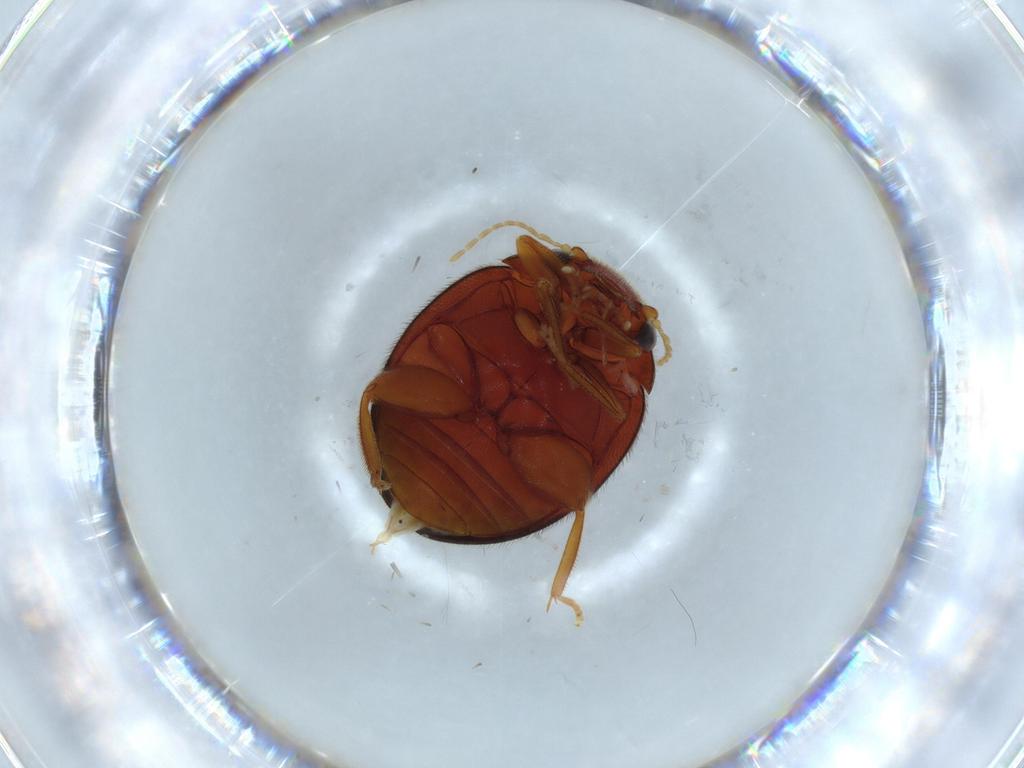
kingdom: Animalia
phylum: Arthropoda
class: Insecta
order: Coleoptera
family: Scirtidae
